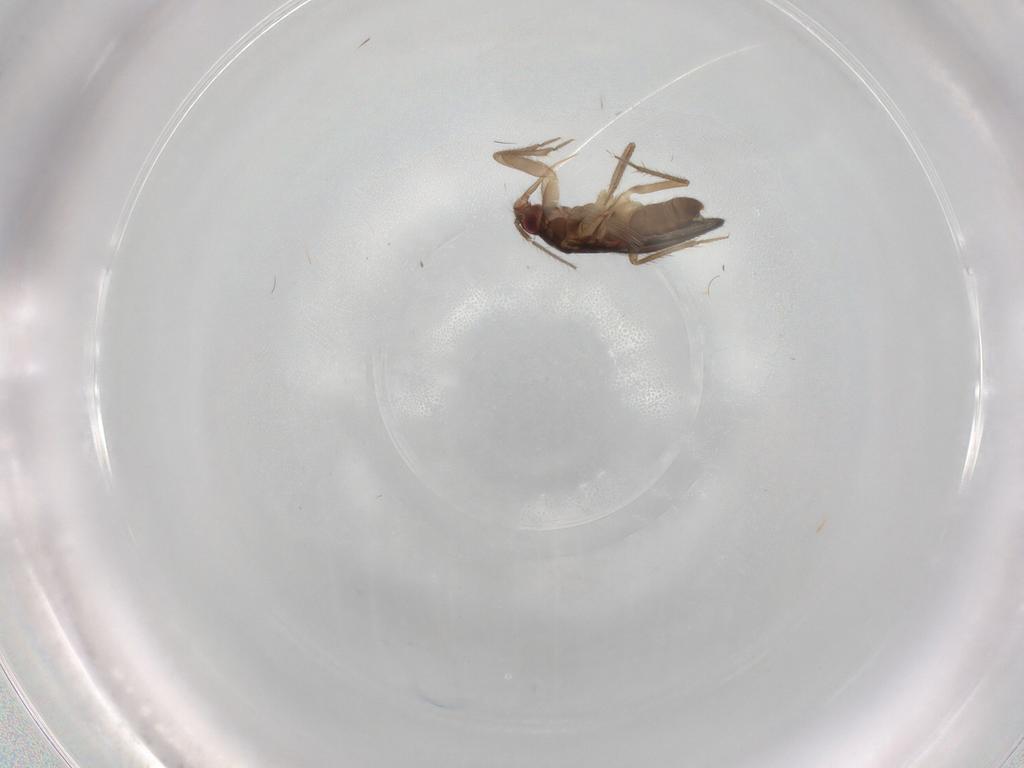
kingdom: Animalia
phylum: Arthropoda
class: Insecta
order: Hemiptera
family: Ceratocombidae
